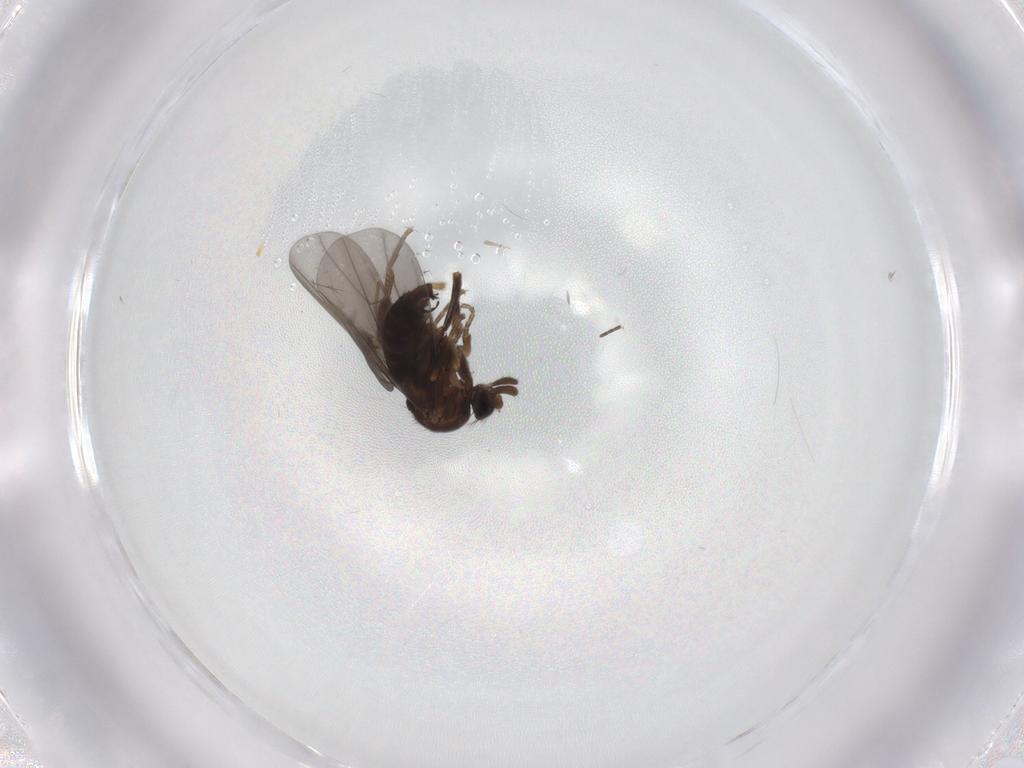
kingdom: Animalia
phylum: Arthropoda
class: Insecta
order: Diptera
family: Phoridae
